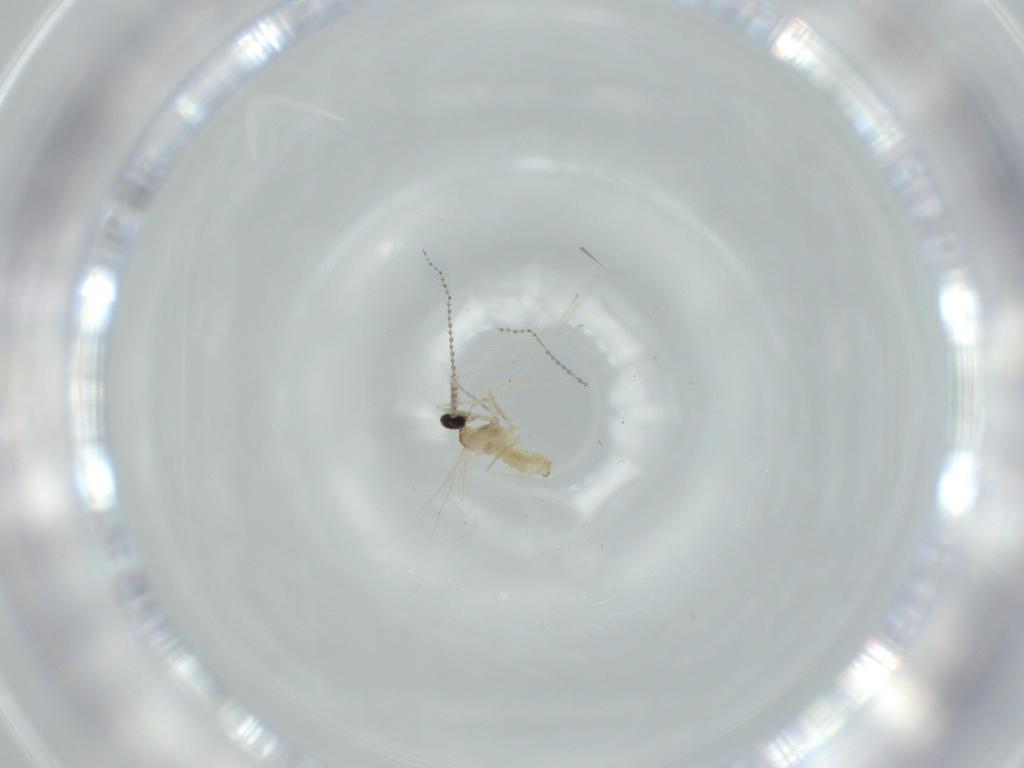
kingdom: Animalia
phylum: Arthropoda
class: Insecta
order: Diptera
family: Cecidomyiidae
